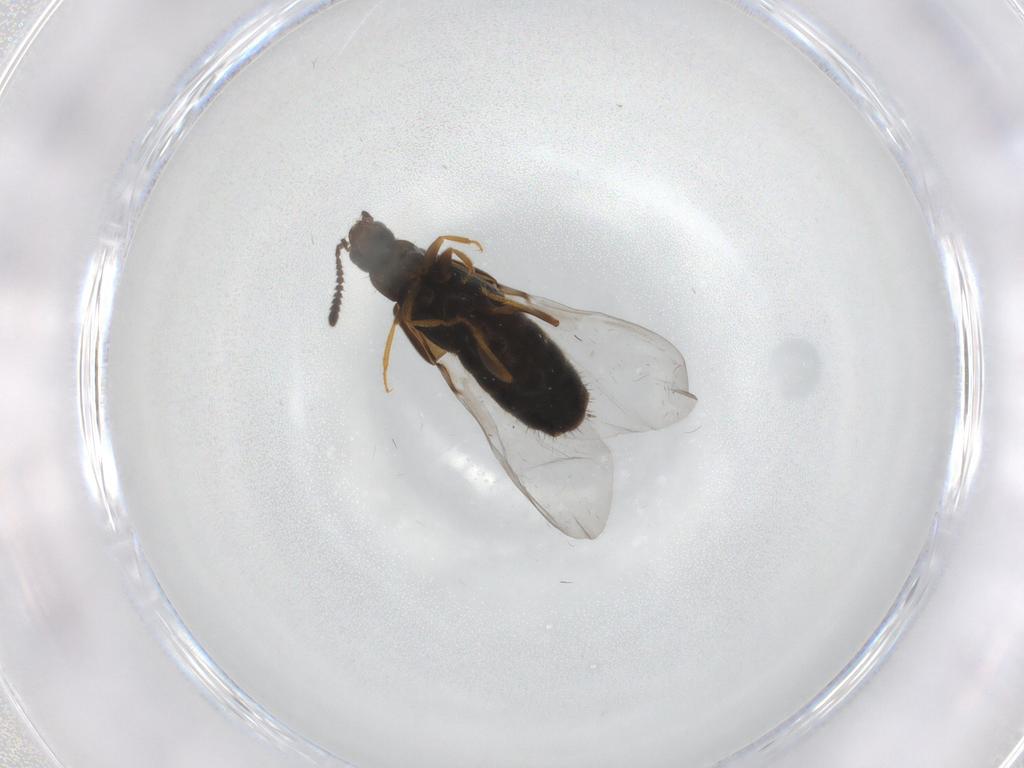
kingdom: Animalia
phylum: Arthropoda
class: Insecta
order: Coleoptera
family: Staphylinidae
